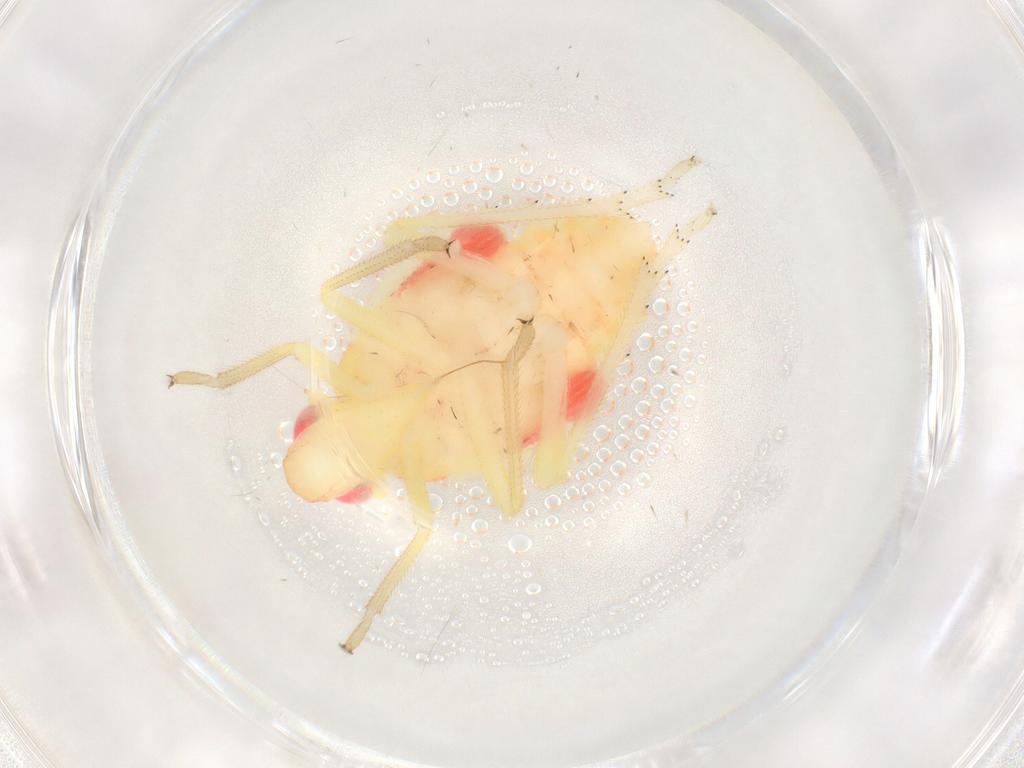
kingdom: Animalia
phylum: Arthropoda
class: Insecta
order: Hemiptera
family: Tropiduchidae
